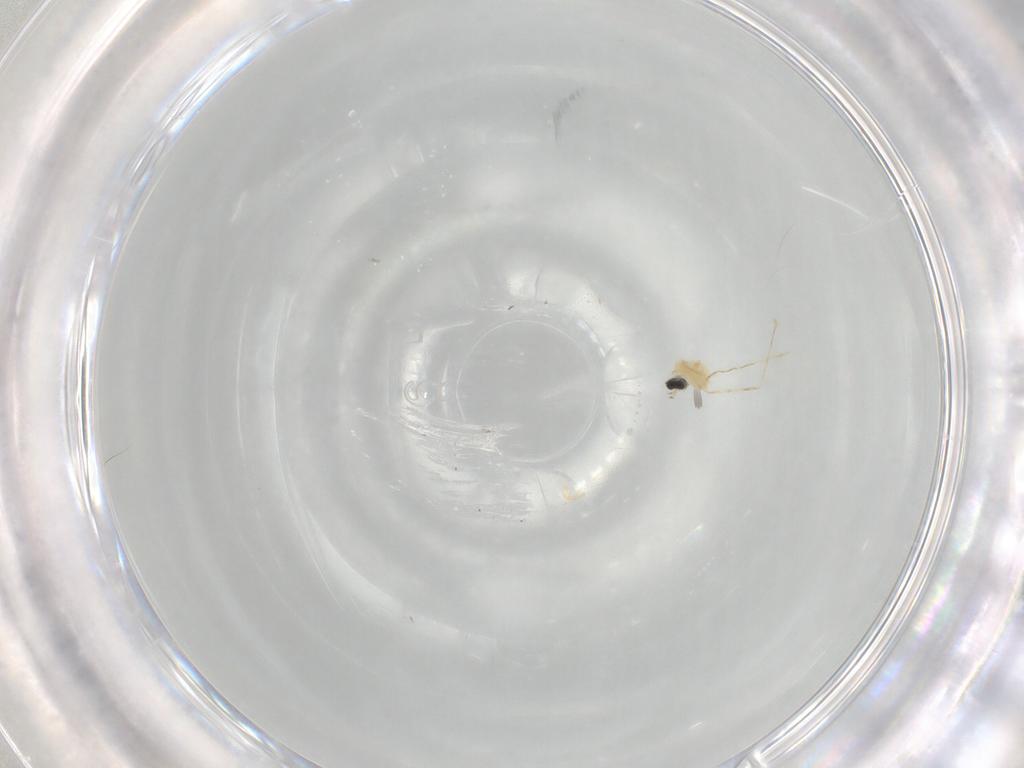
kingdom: Animalia
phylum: Arthropoda
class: Insecta
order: Diptera
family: Cecidomyiidae
